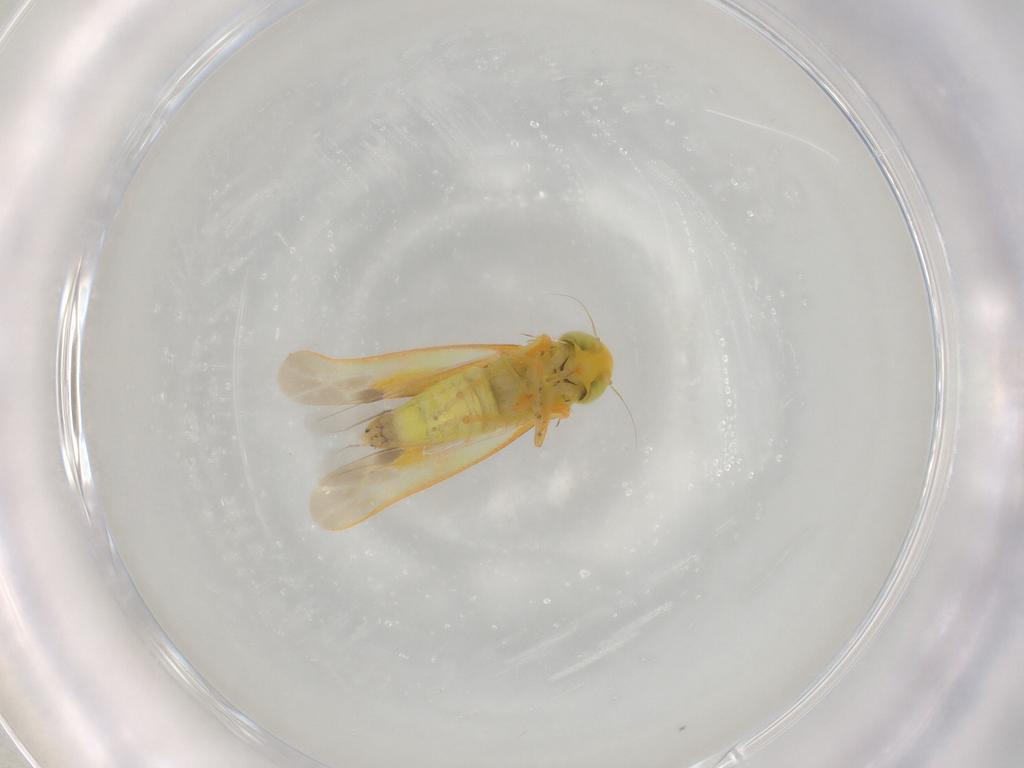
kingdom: Animalia
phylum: Arthropoda
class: Insecta
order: Hemiptera
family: Cicadellidae
